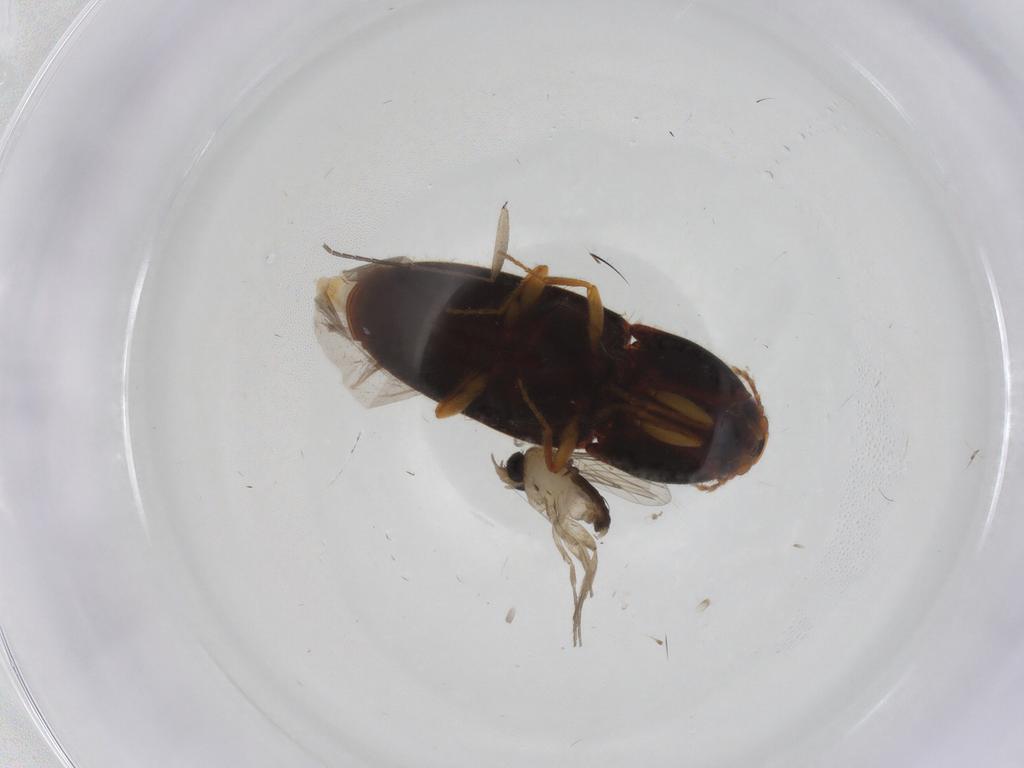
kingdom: Animalia
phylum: Arthropoda
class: Insecta
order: Diptera
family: Phoridae
